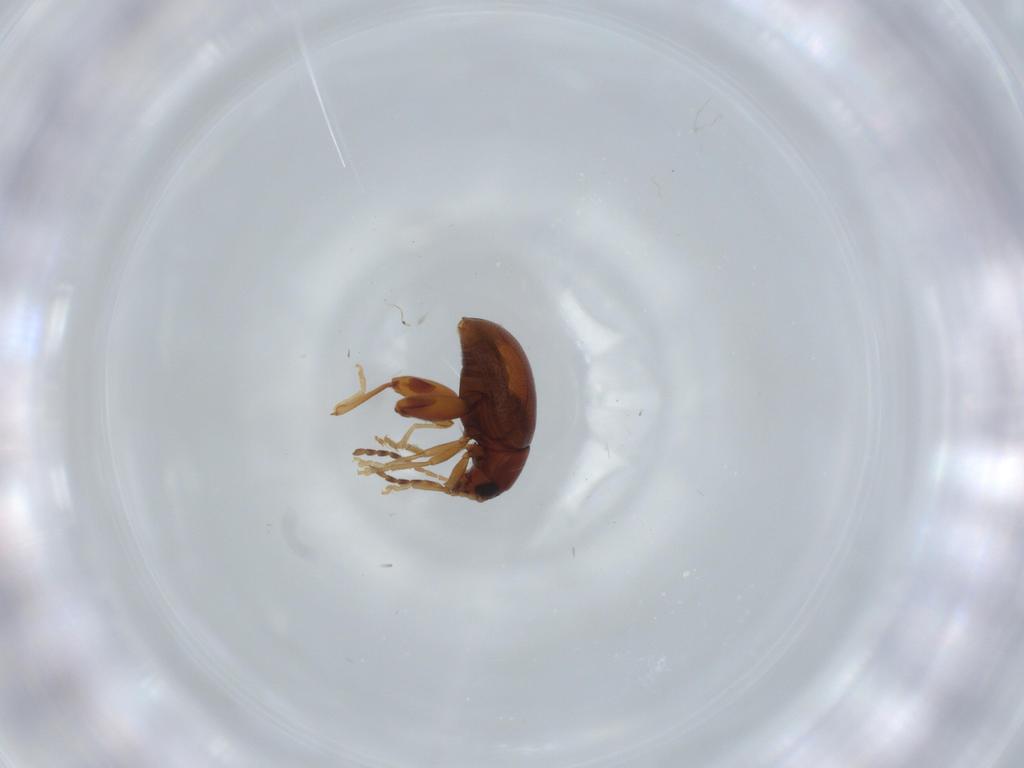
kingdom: Animalia
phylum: Arthropoda
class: Insecta
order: Coleoptera
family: Chrysomelidae
